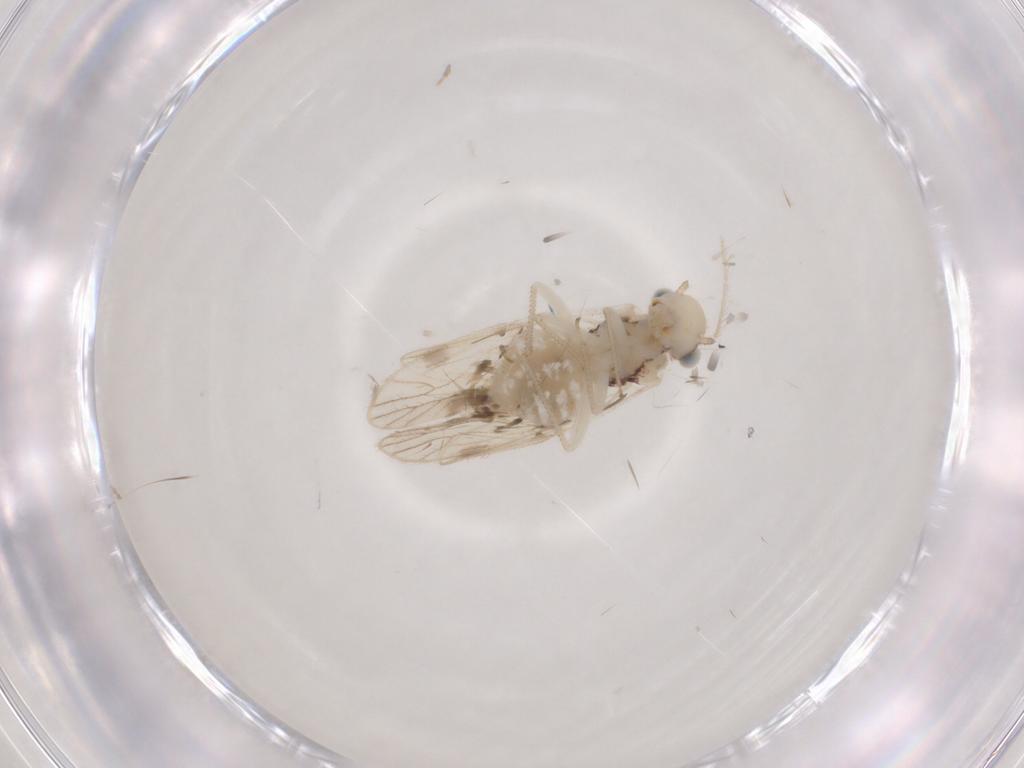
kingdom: Animalia
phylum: Arthropoda
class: Insecta
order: Psocodea
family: Caeciliusidae
